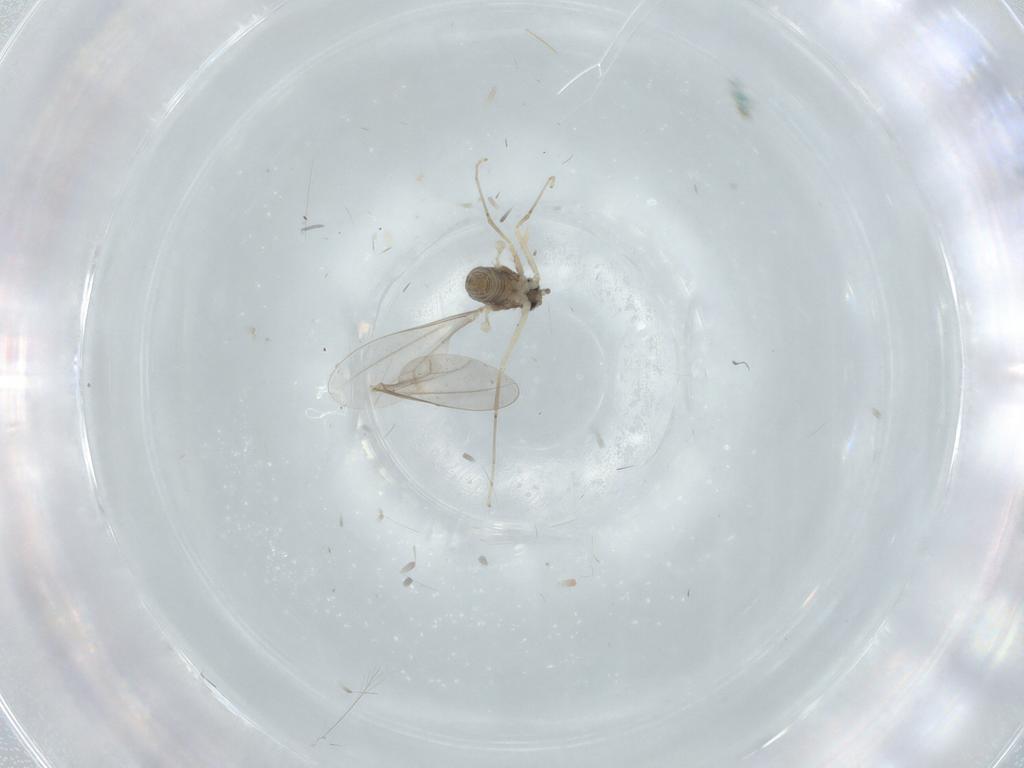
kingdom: Animalia
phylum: Arthropoda
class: Insecta
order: Diptera
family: Cecidomyiidae
